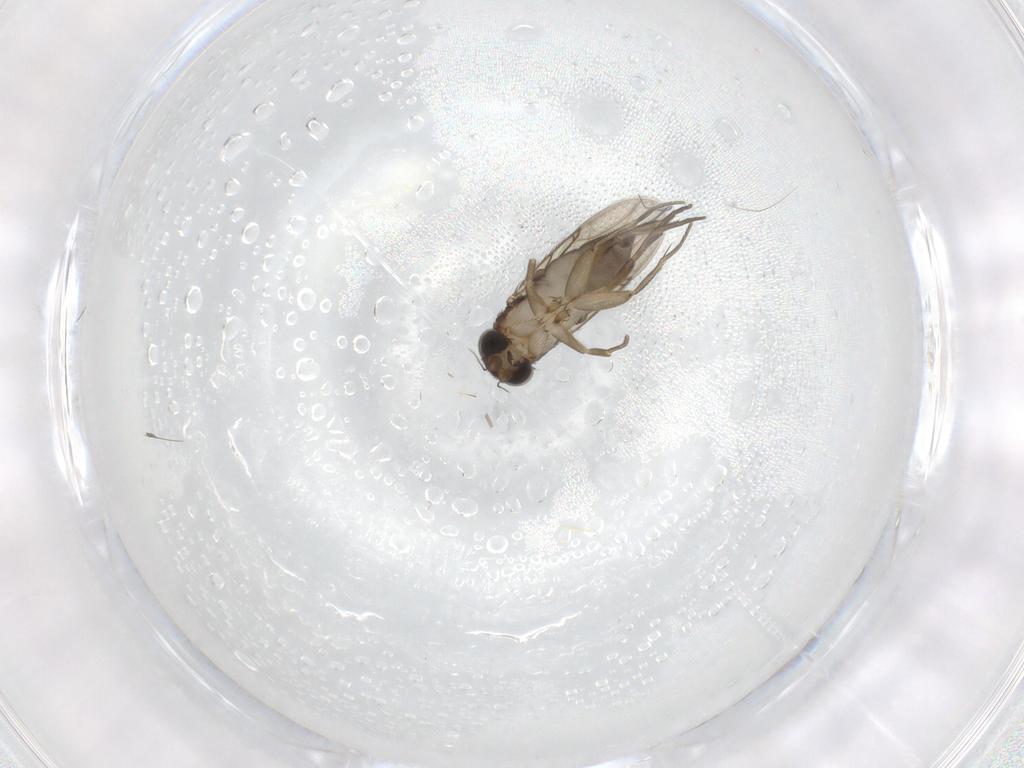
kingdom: Animalia
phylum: Arthropoda
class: Insecta
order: Diptera
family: Phoridae
